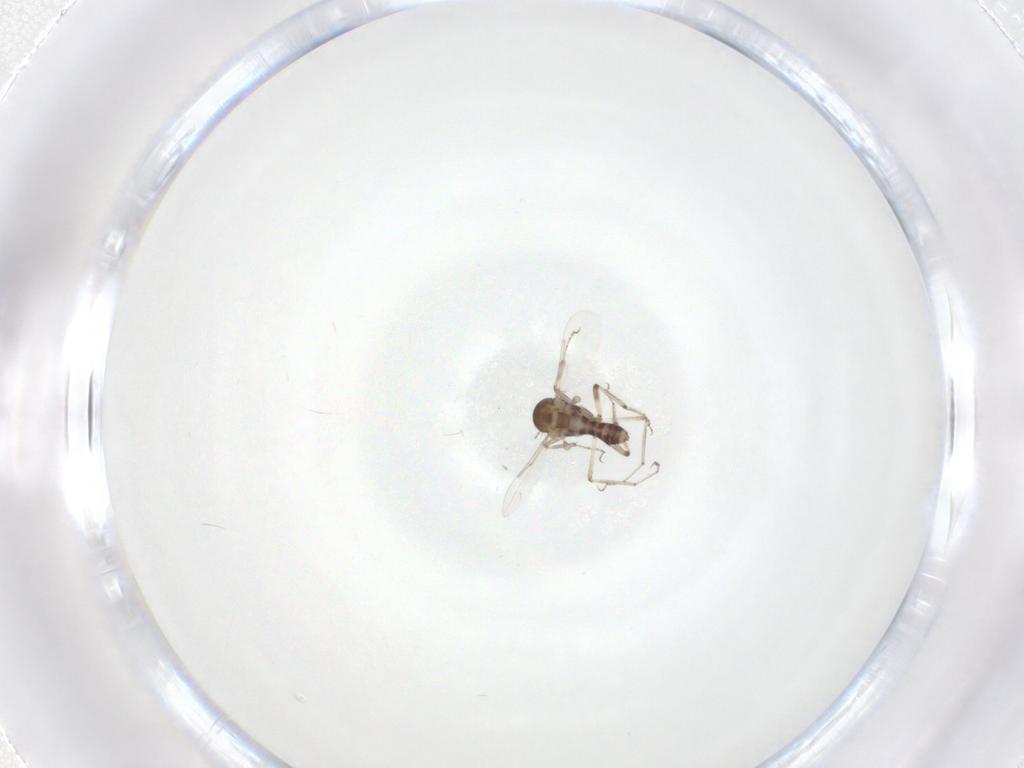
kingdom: Animalia
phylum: Arthropoda
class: Insecta
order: Diptera
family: Ceratopogonidae
